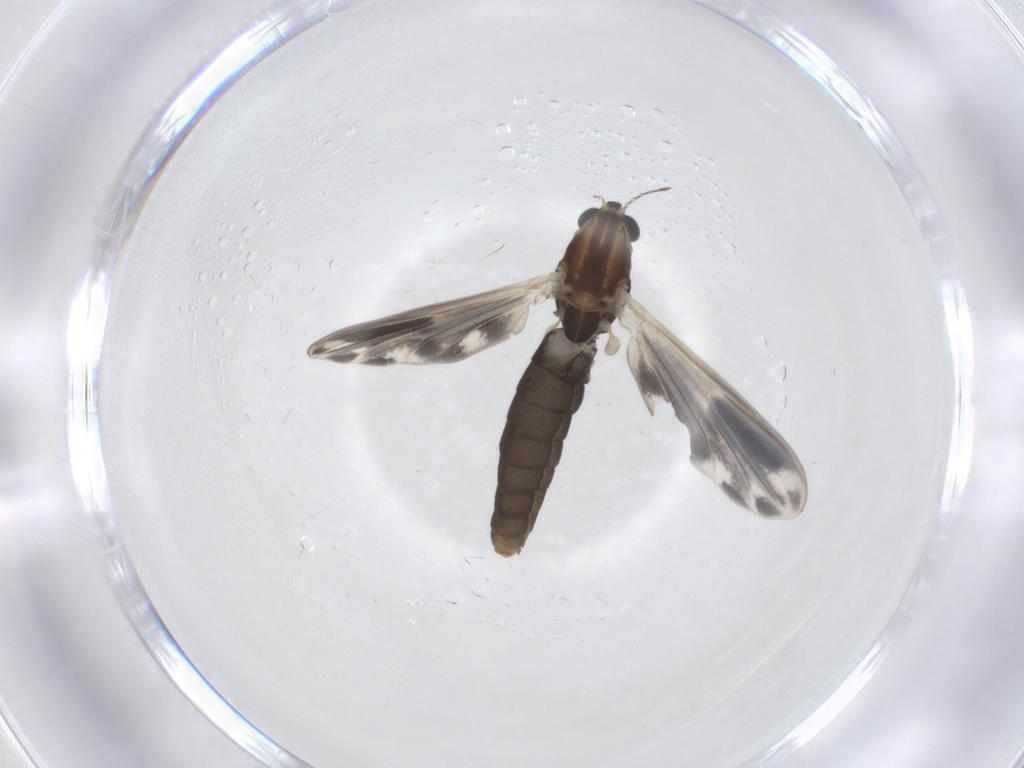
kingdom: Animalia
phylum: Arthropoda
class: Insecta
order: Diptera
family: Chironomidae
